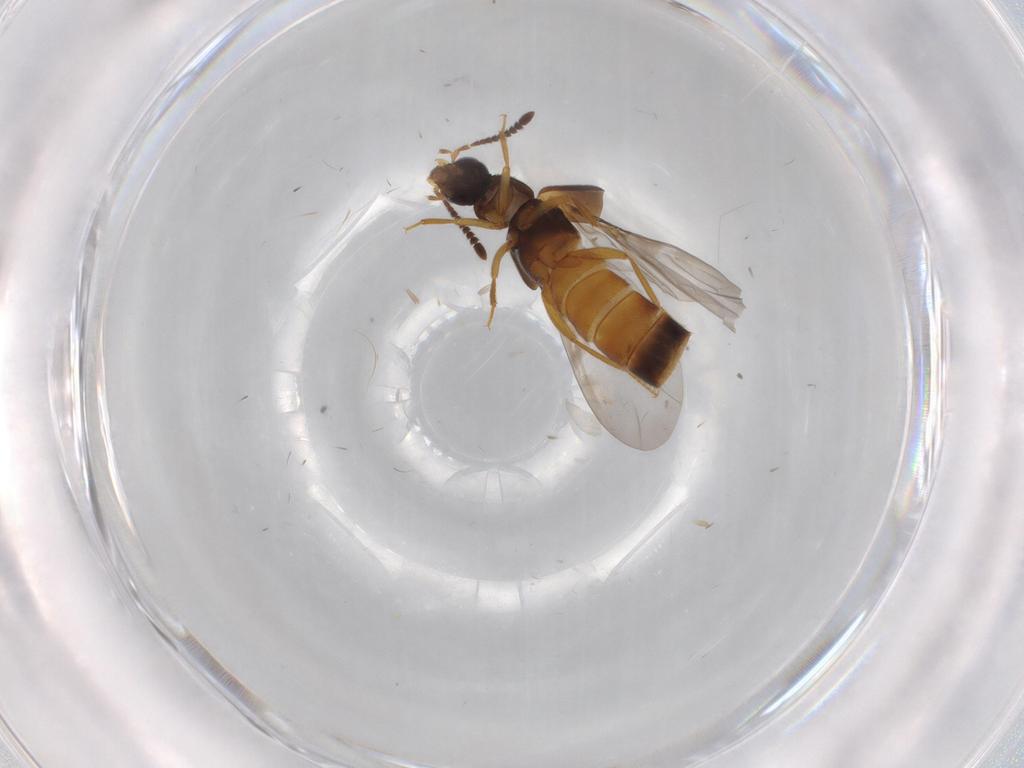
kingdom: Animalia
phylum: Arthropoda
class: Insecta
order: Coleoptera
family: Staphylinidae
